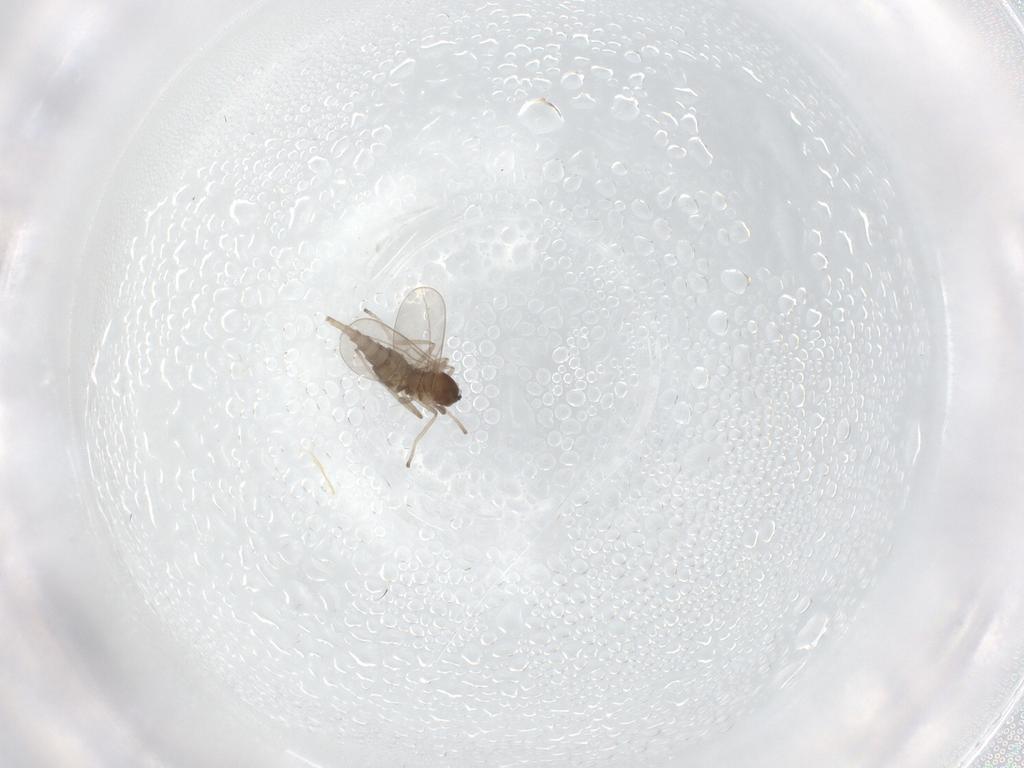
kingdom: Animalia
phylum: Arthropoda
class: Insecta
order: Diptera
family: Cecidomyiidae
